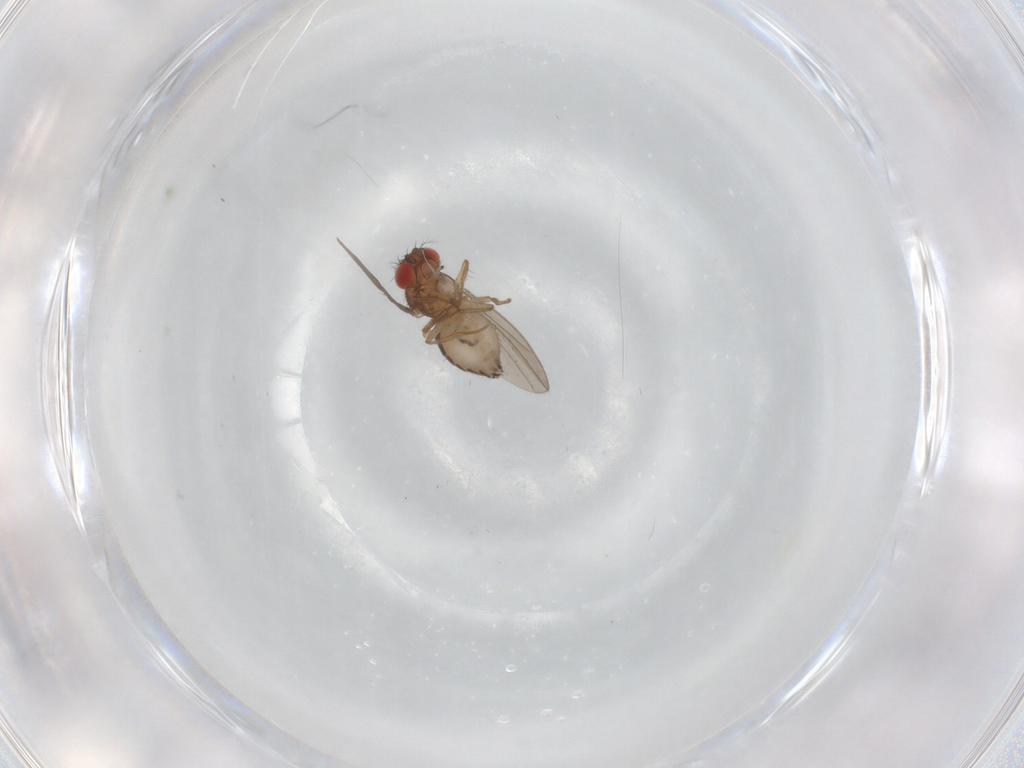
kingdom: Animalia
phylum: Arthropoda
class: Insecta
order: Diptera
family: Drosophilidae
